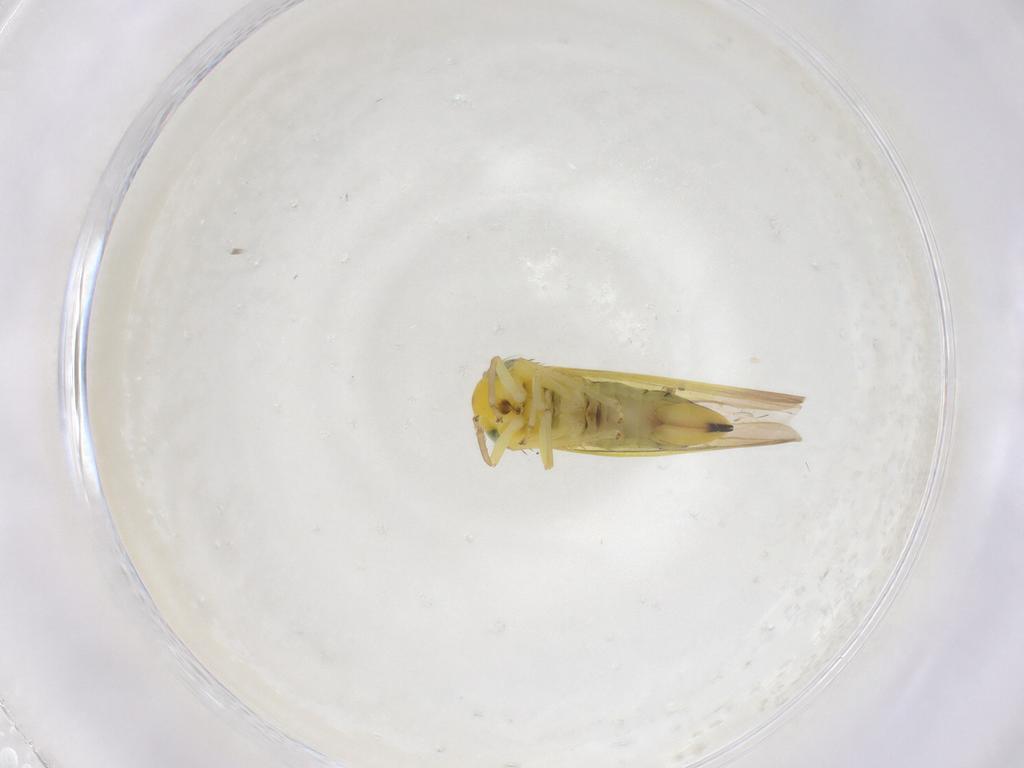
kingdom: Animalia
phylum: Arthropoda
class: Insecta
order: Hemiptera
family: Cicadellidae
